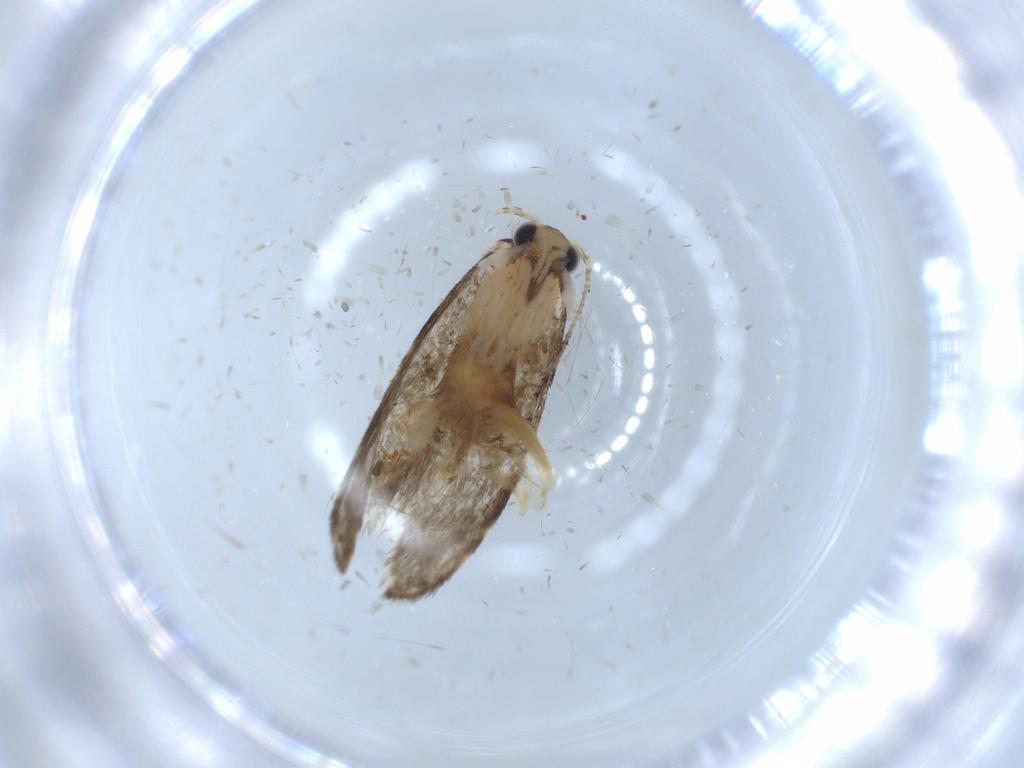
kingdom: Animalia
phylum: Arthropoda
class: Insecta
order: Lepidoptera
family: Tineidae
